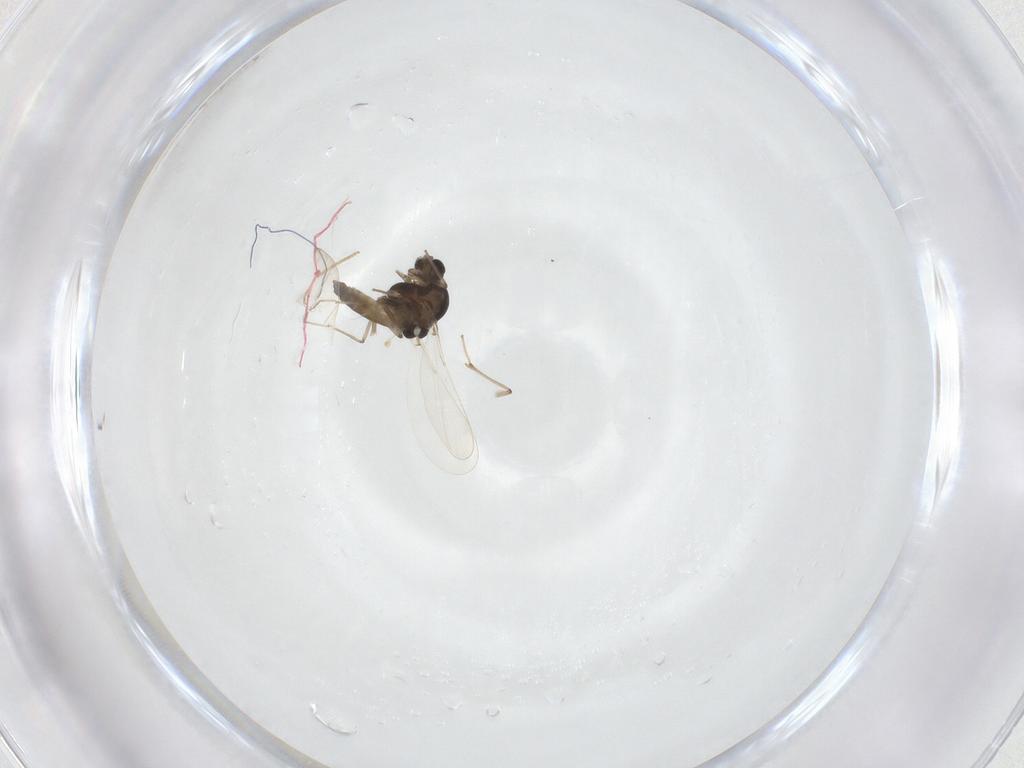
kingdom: Animalia
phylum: Arthropoda
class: Insecta
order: Diptera
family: Chironomidae
